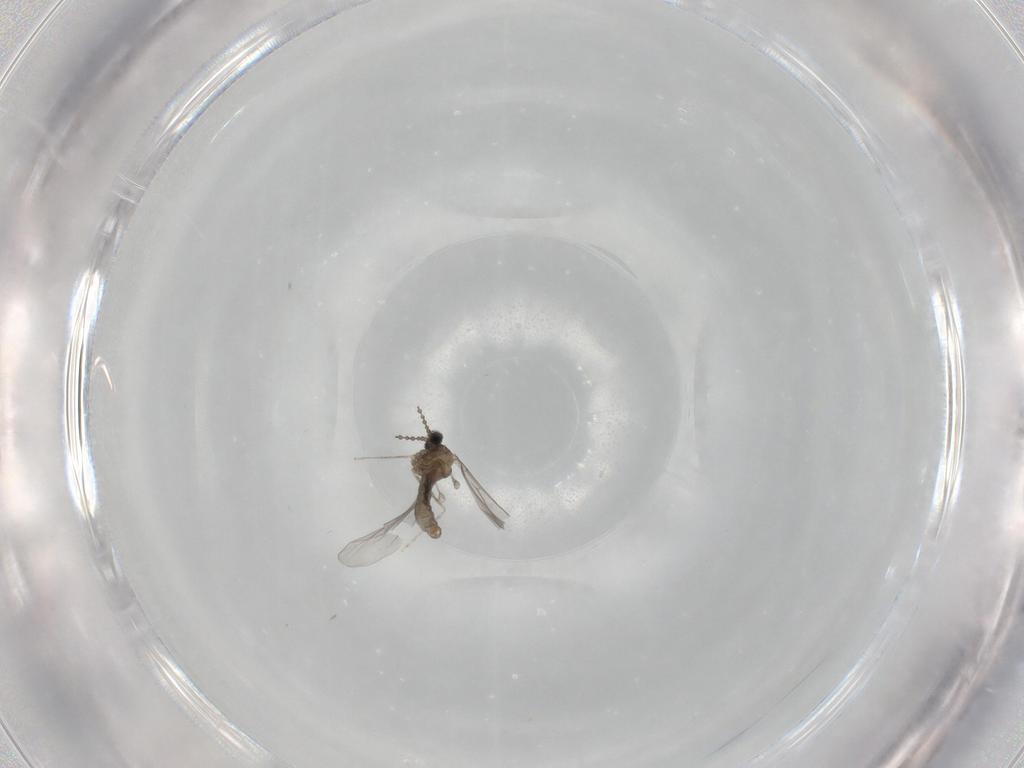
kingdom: Animalia
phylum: Arthropoda
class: Insecta
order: Diptera
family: Cecidomyiidae
